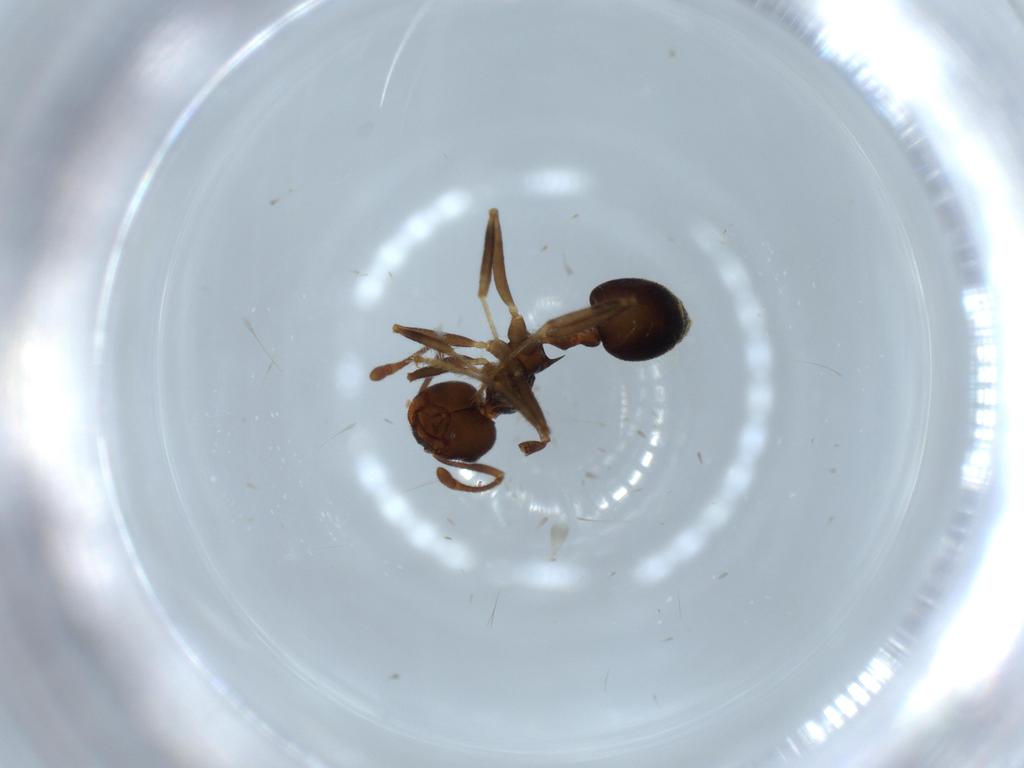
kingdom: Animalia
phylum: Arthropoda
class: Insecta
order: Hymenoptera
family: Formicidae
